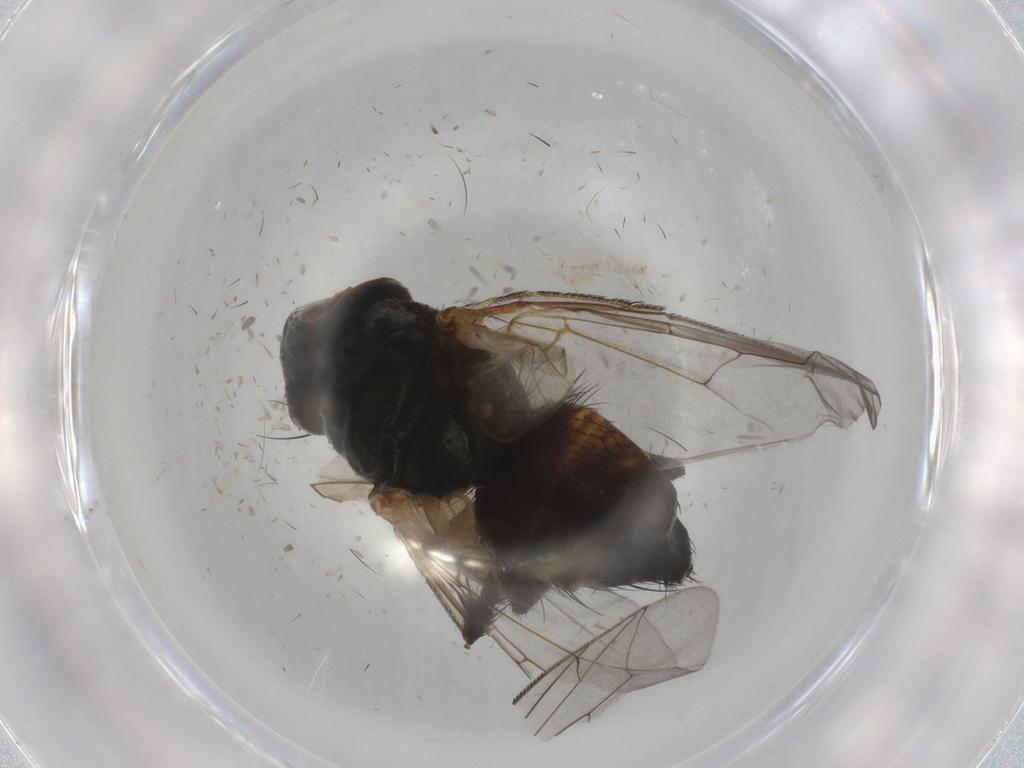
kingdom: Animalia
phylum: Arthropoda
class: Insecta
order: Diptera
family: Sarcophagidae
